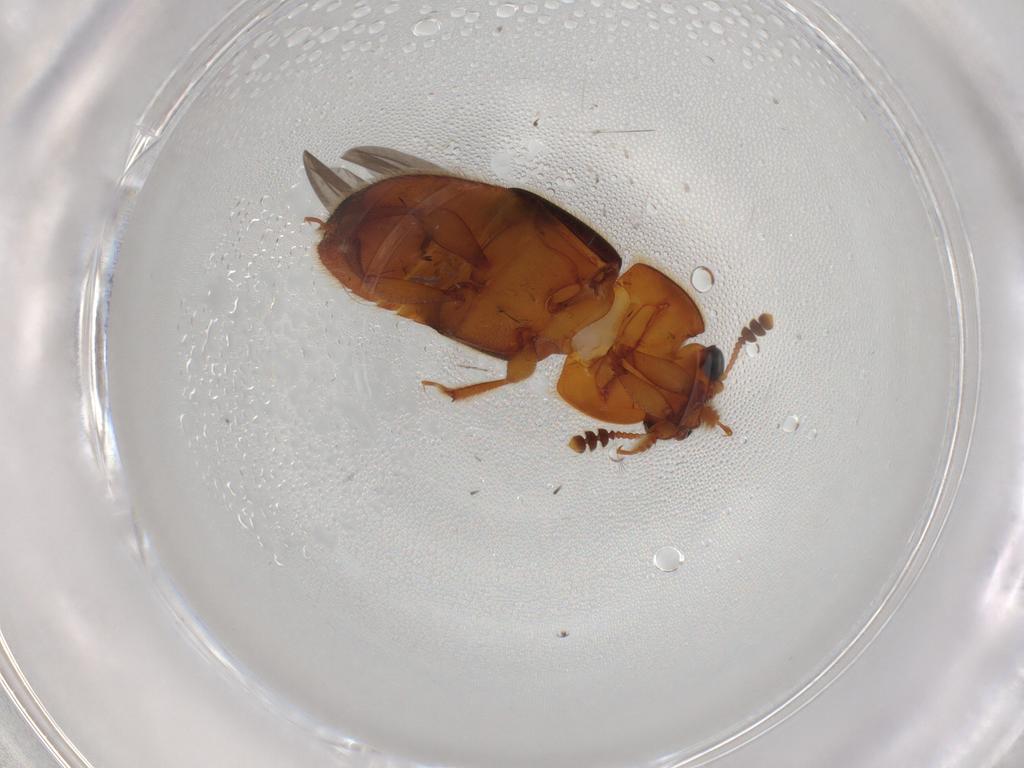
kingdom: Animalia
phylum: Arthropoda
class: Insecta
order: Coleoptera
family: Nitidulidae
